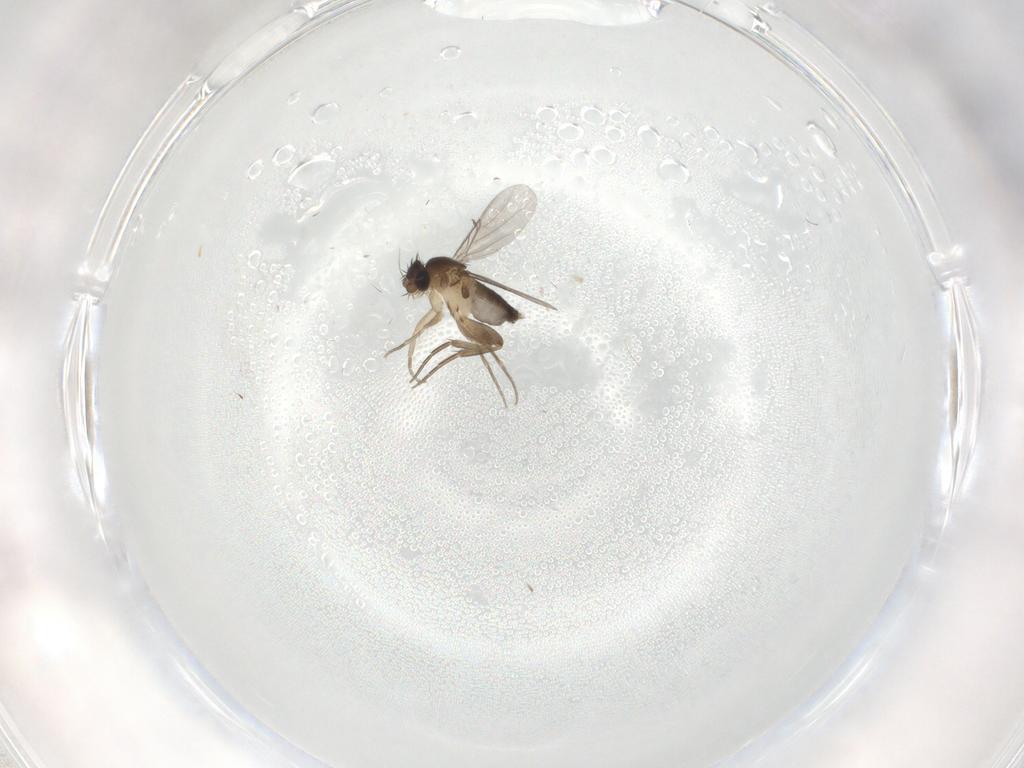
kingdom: Animalia
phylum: Arthropoda
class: Insecta
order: Diptera
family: Phoridae
